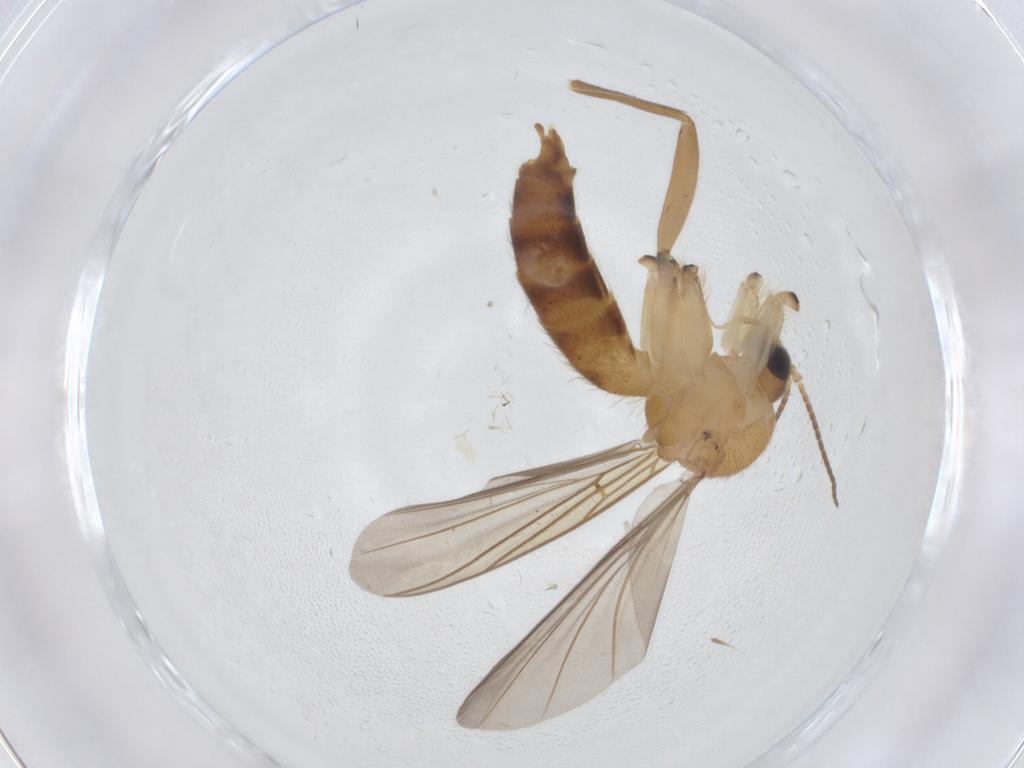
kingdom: Animalia
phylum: Arthropoda
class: Insecta
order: Diptera
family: Mycetophilidae
